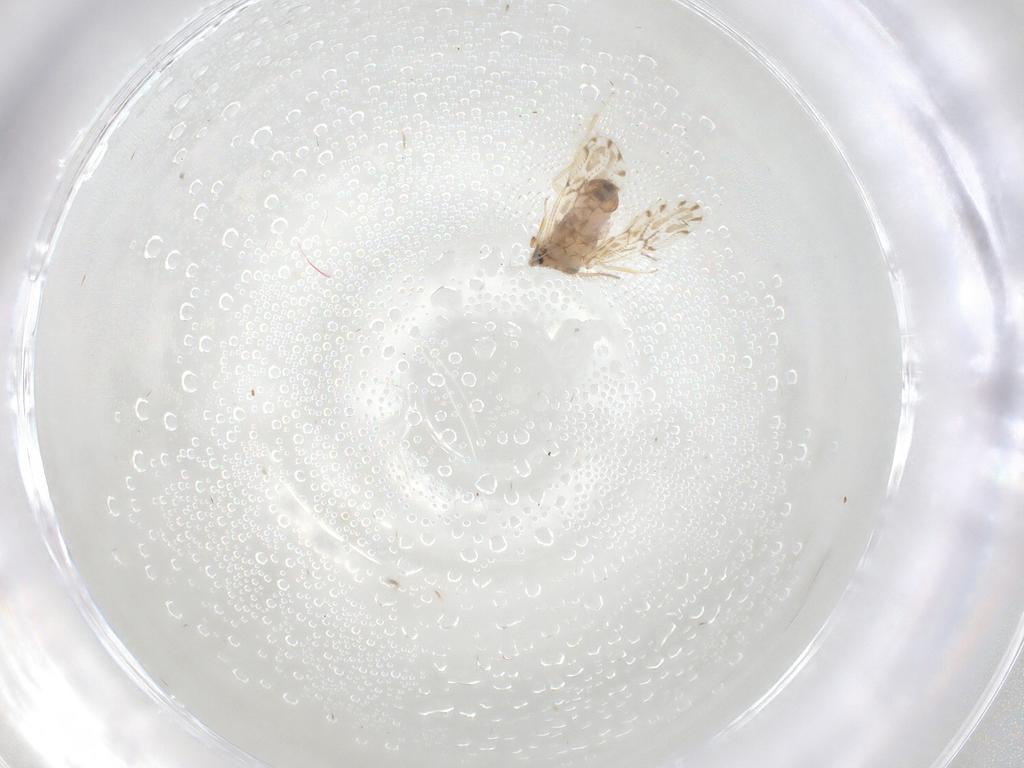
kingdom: Animalia
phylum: Arthropoda
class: Insecta
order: Psocodea
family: Ectopsocidae
